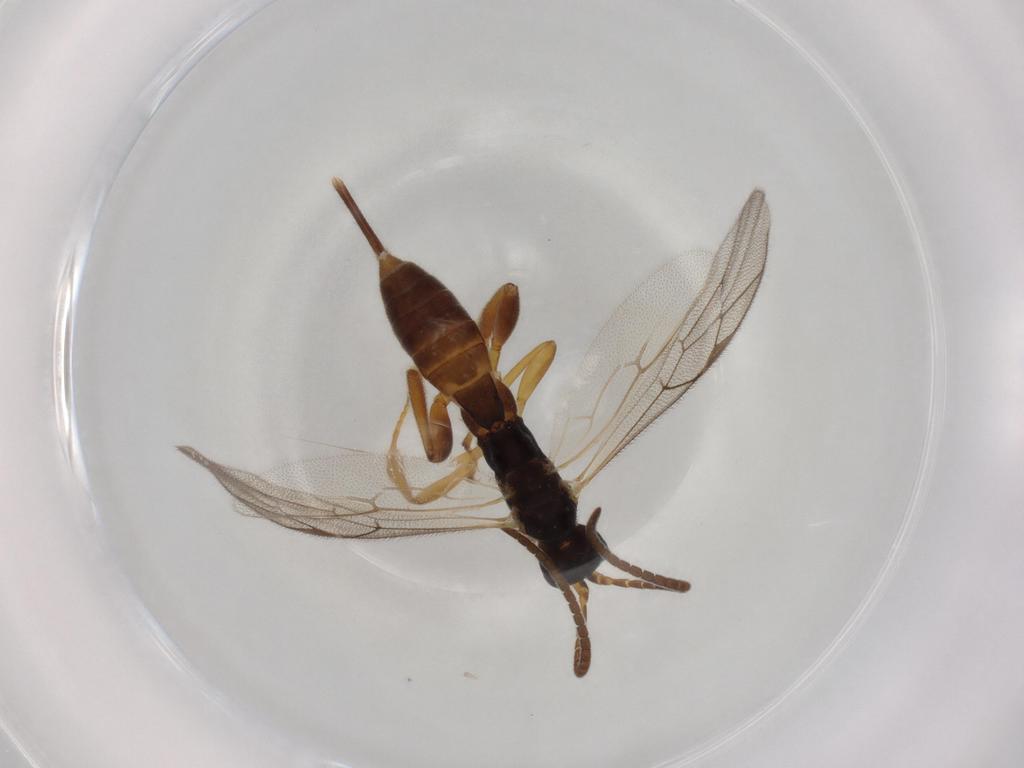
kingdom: Animalia
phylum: Arthropoda
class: Insecta
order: Hymenoptera
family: Ichneumonidae
